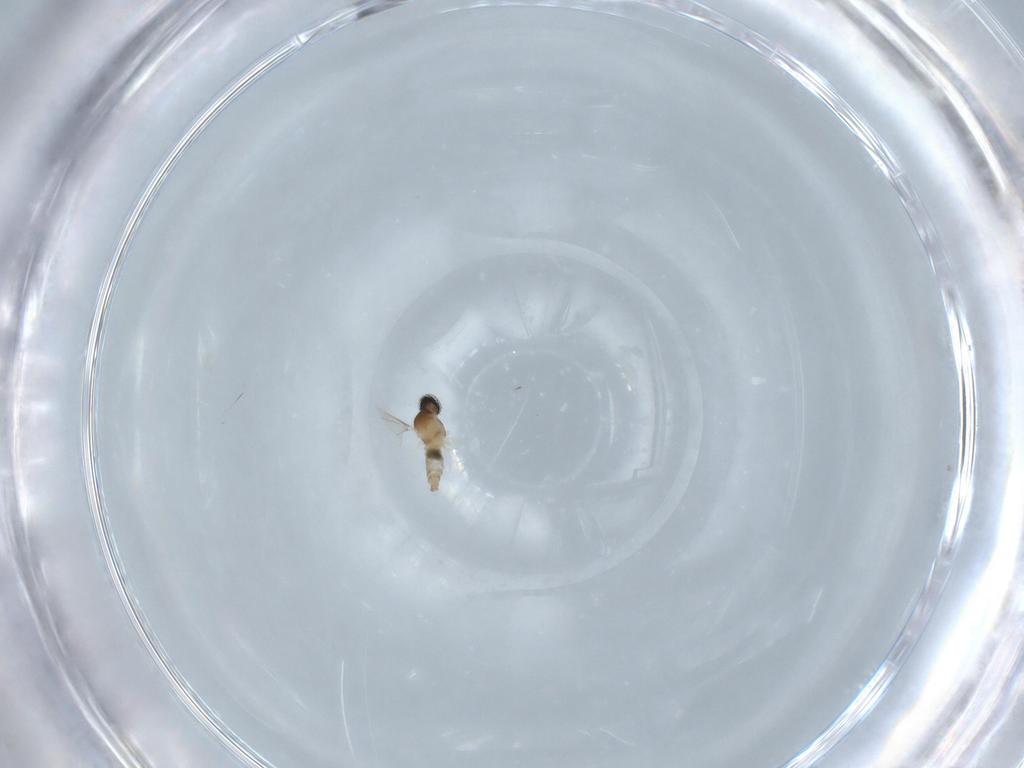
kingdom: Animalia
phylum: Arthropoda
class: Insecta
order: Diptera
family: Cecidomyiidae
